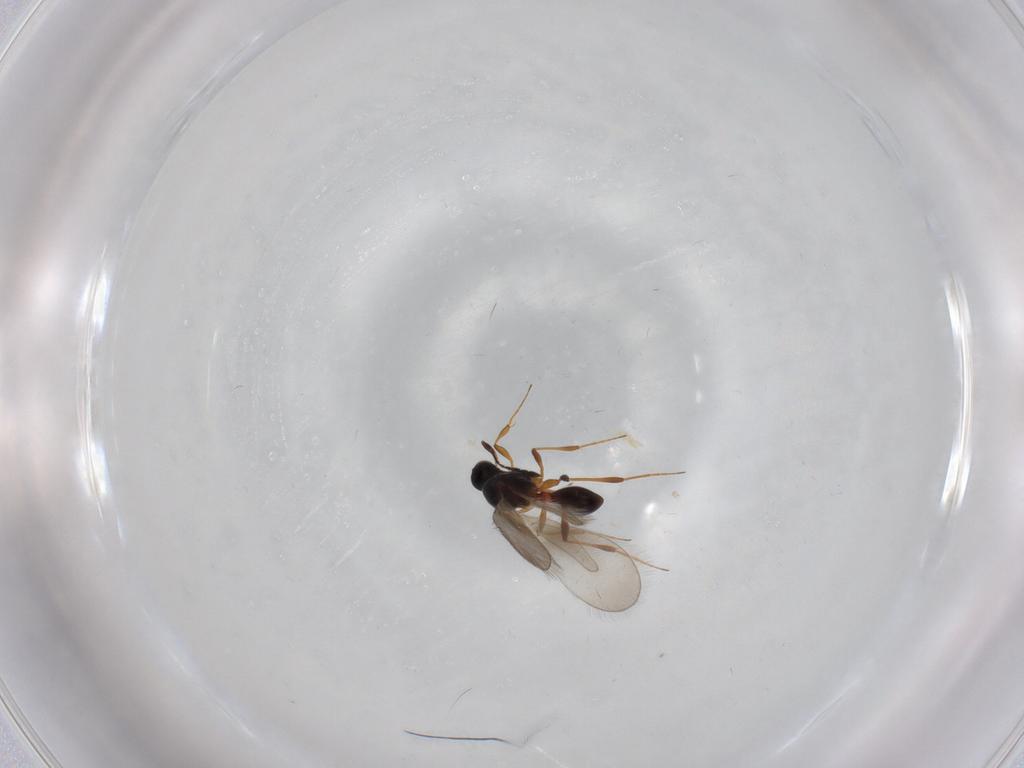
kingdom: Animalia
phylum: Arthropoda
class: Insecta
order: Hymenoptera
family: Platygastridae
